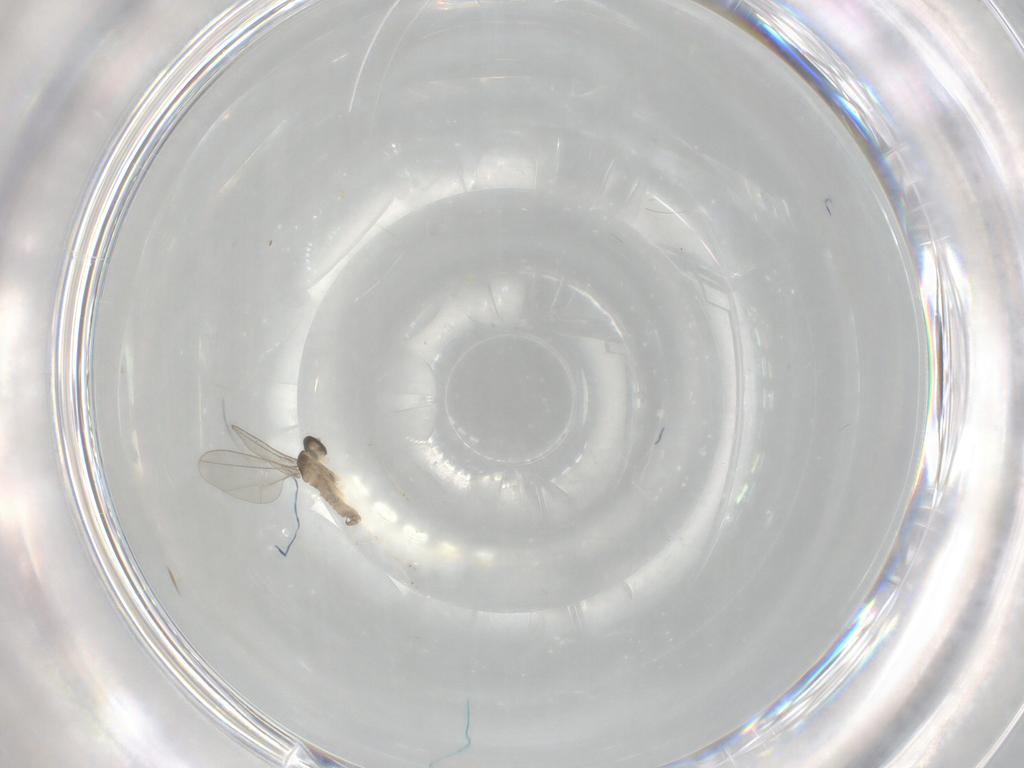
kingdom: Animalia
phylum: Arthropoda
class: Insecta
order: Diptera
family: Cecidomyiidae
